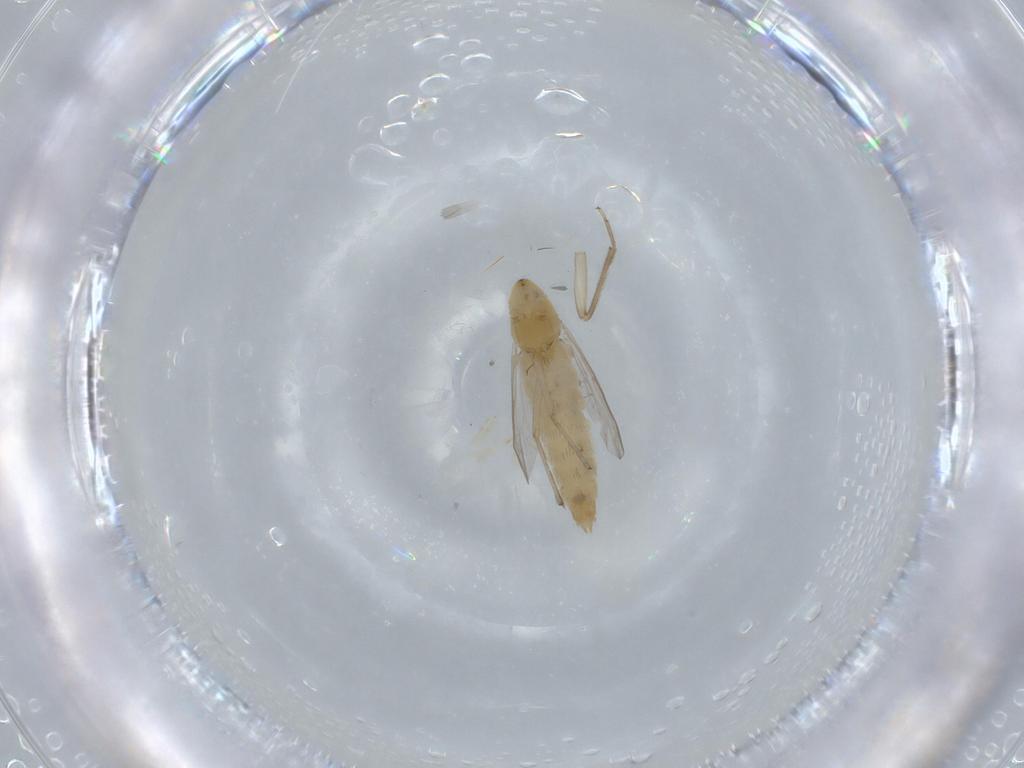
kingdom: Animalia
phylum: Arthropoda
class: Insecta
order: Diptera
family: Chironomidae
